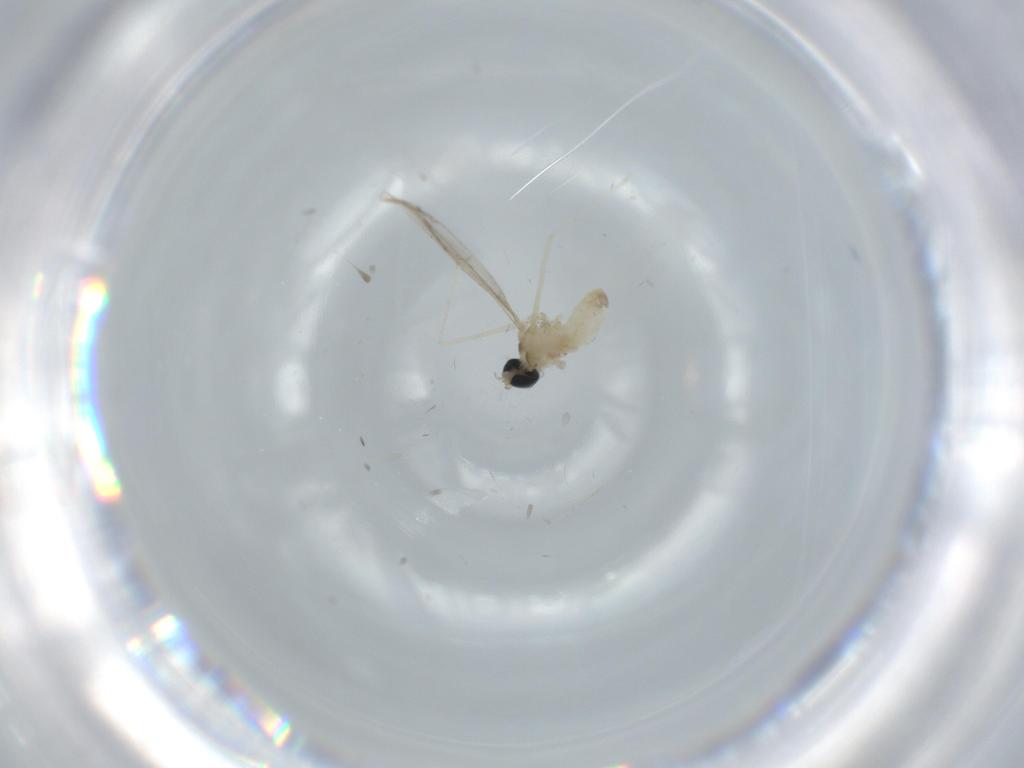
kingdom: Animalia
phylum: Arthropoda
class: Insecta
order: Diptera
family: Cecidomyiidae
